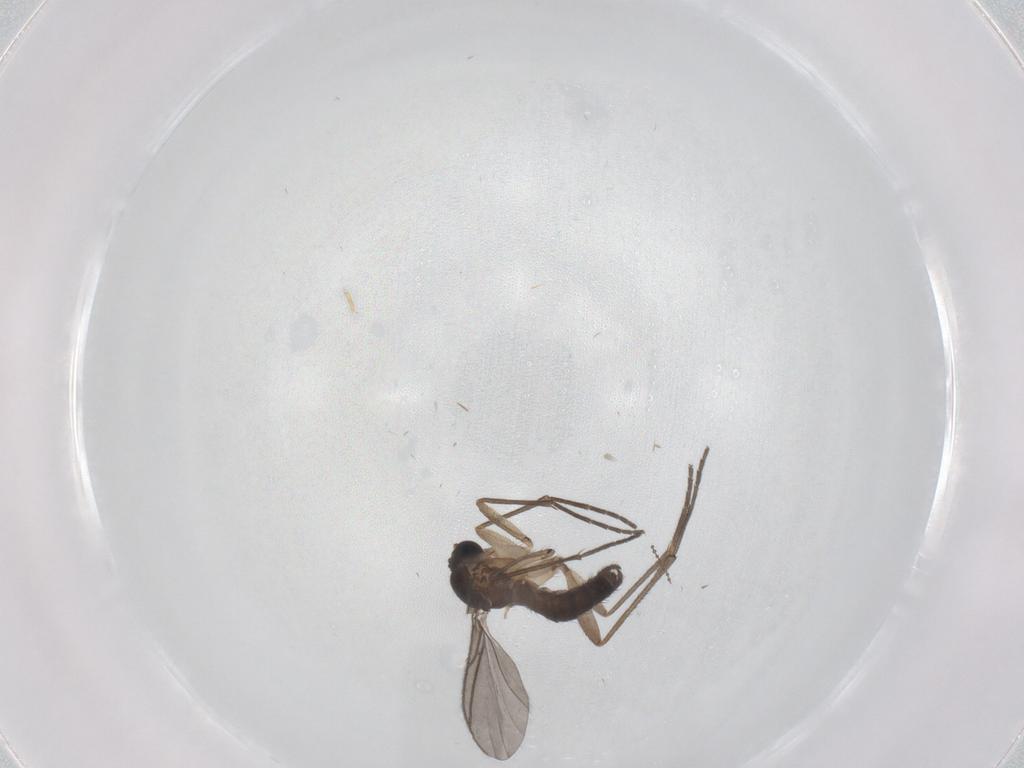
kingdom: Animalia
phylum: Arthropoda
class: Insecta
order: Diptera
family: Sciaridae
